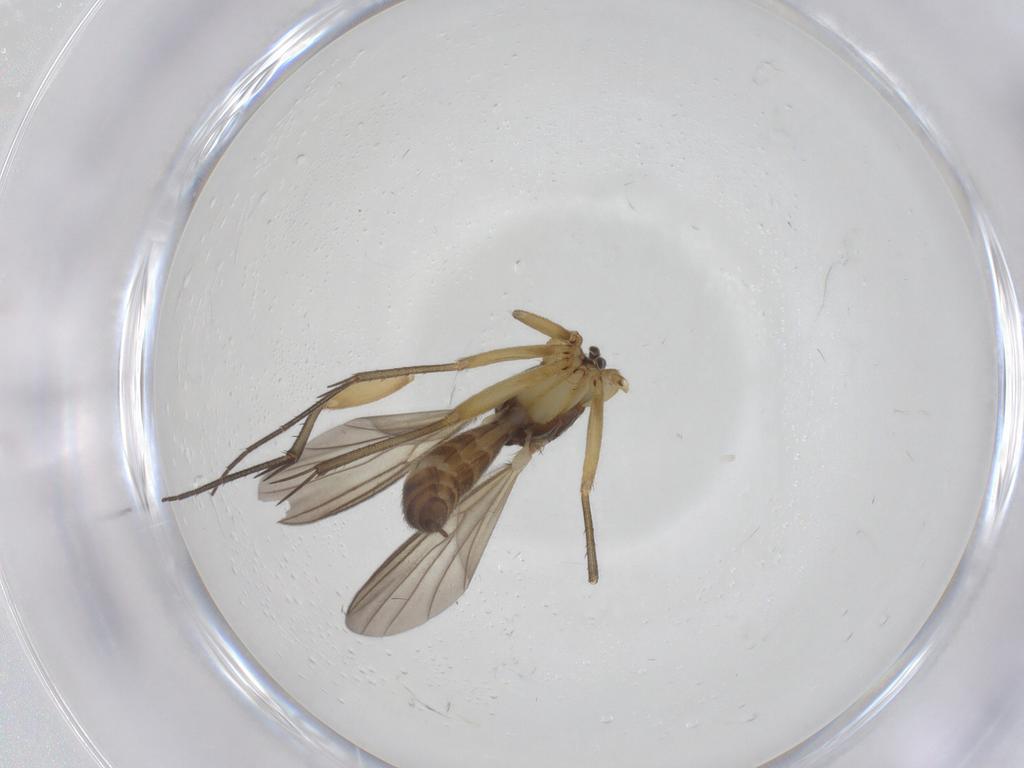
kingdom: Animalia
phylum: Arthropoda
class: Insecta
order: Diptera
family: Mycetophilidae
